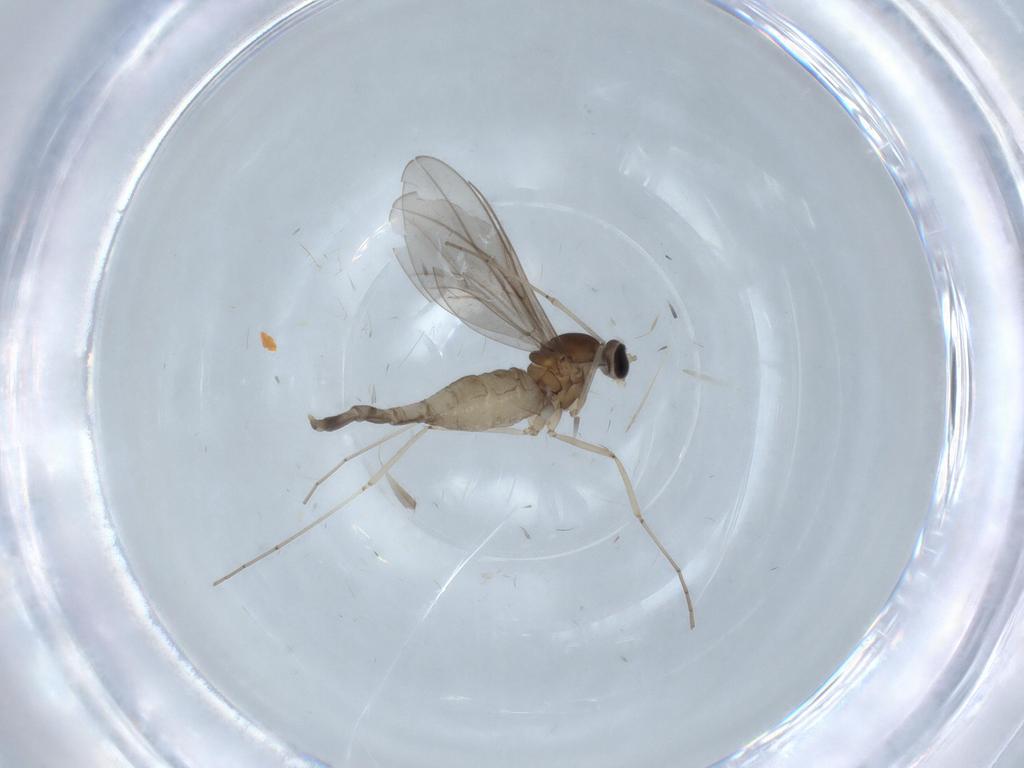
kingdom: Animalia
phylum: Arthropoda
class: Insecta
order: Diptera
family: Cecidomyiidae
